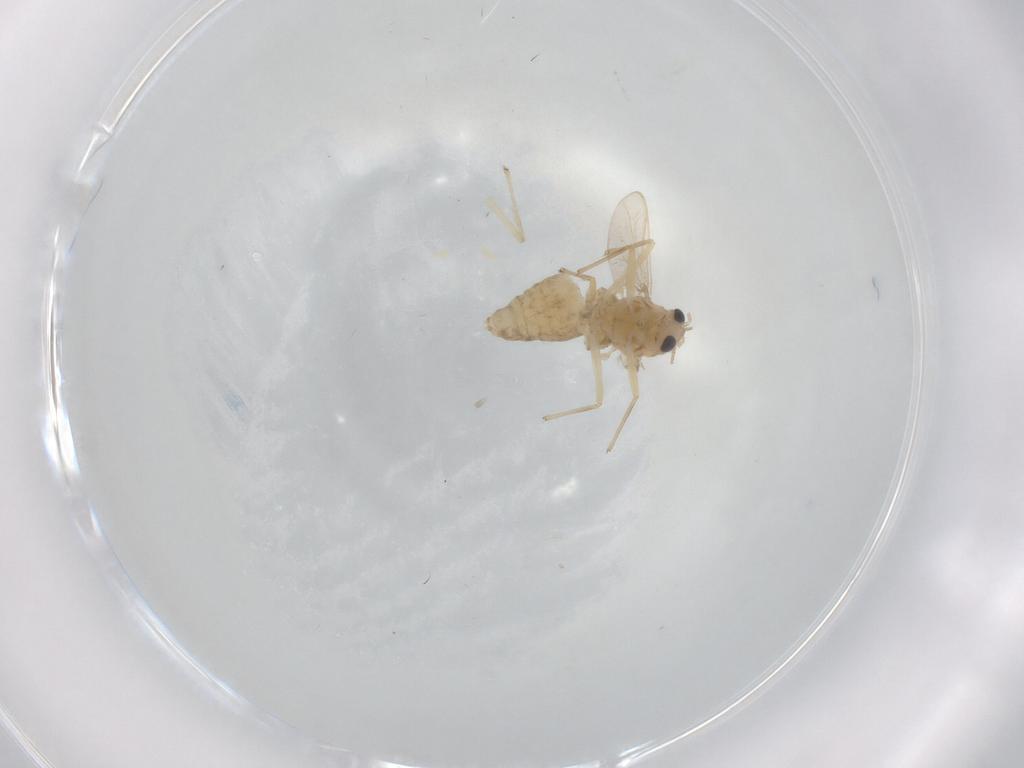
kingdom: Animalia
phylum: Arthropoda
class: Insecta
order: Diptera
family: Chironomidae
